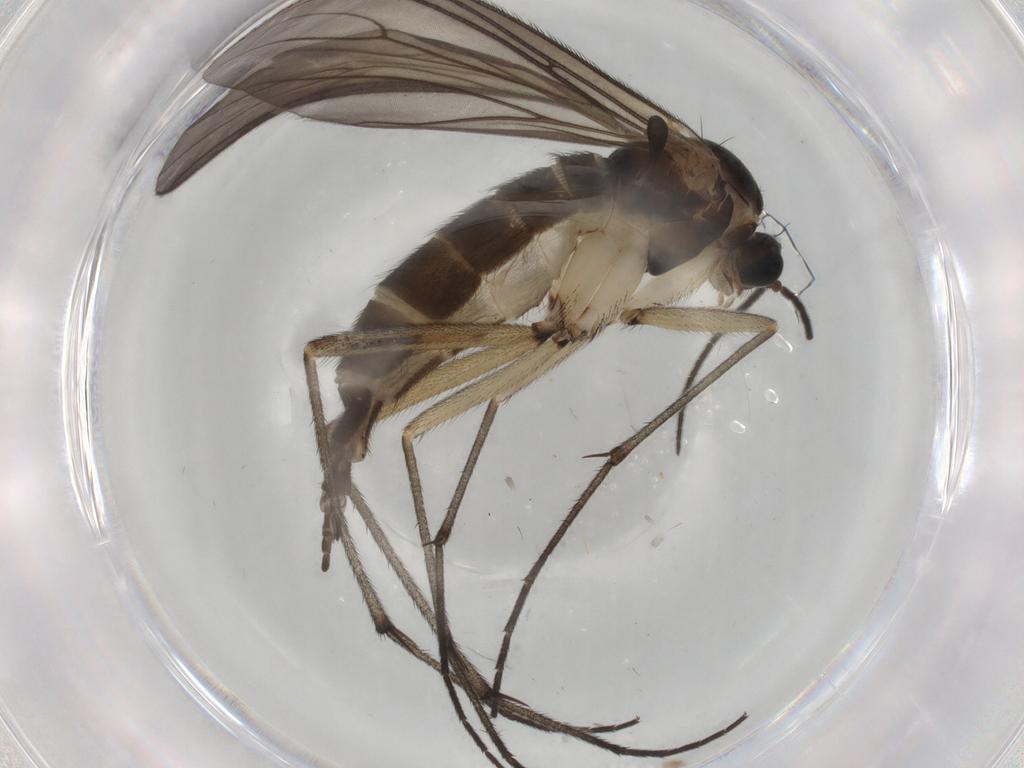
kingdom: Animalia
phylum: Arthropoda
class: Insecta
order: Diptera
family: Sciaridae
